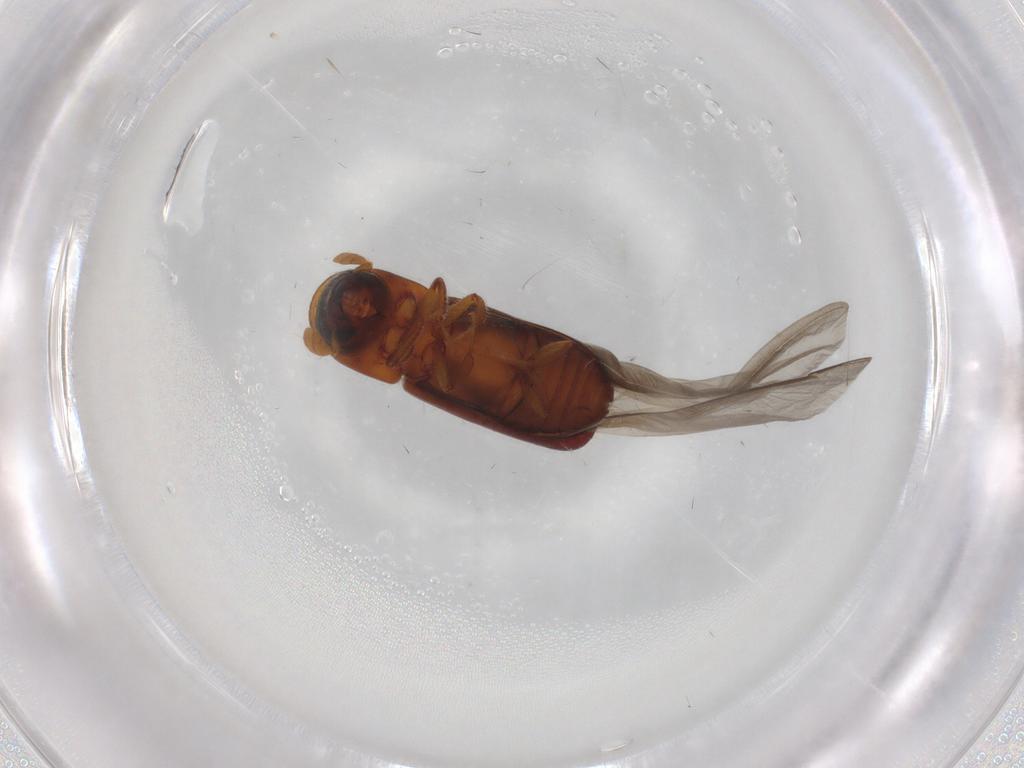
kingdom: Animalia
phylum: Arthropoda
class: Insecta
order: Coleoptera
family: Curculionidae
